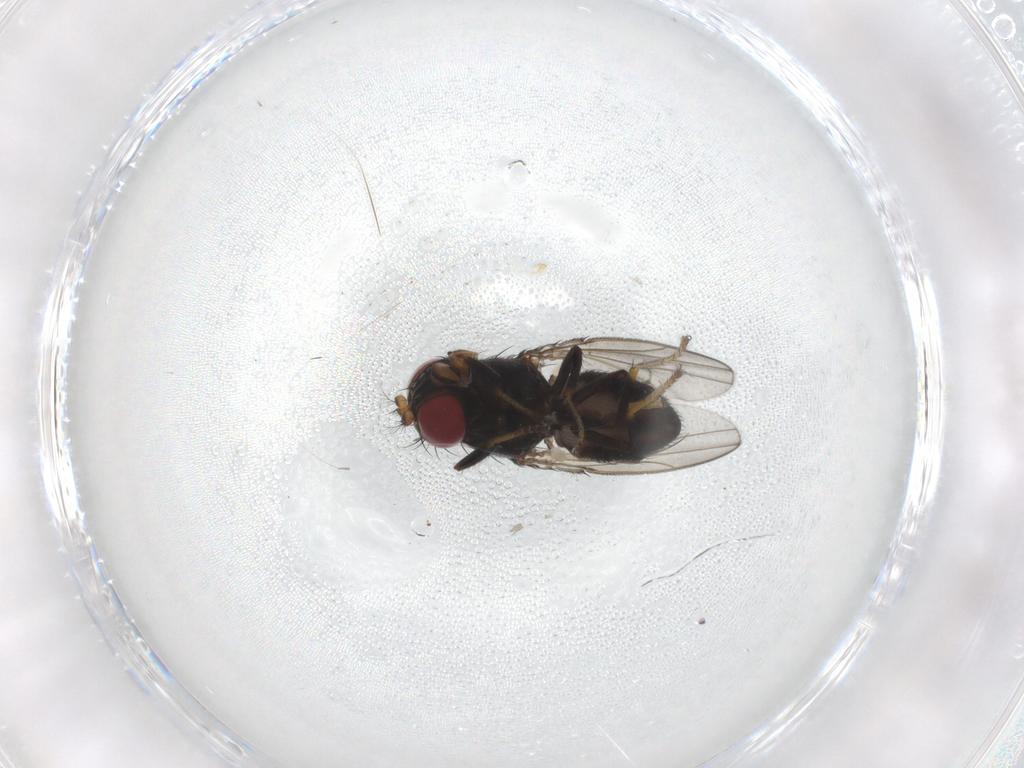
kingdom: Animalia
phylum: Arthropoda
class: Insecta
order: Diptera
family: Ephydridae
